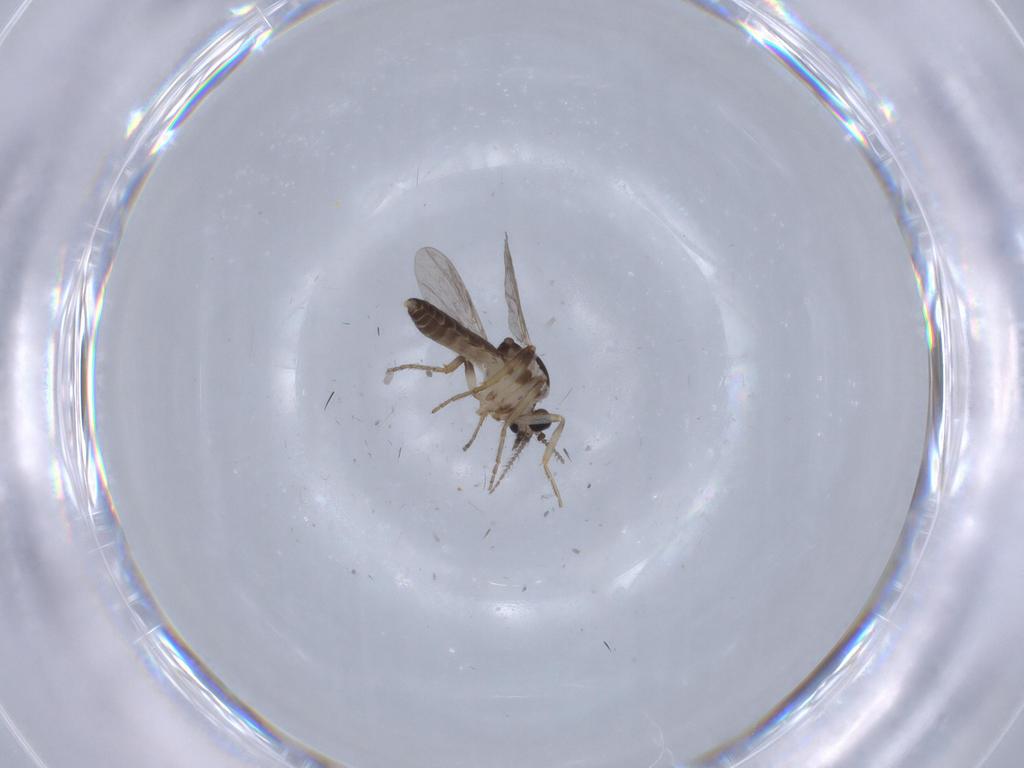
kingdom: Animalia
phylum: Arthropoda
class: Insecta
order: Diptera
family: Ceratopogonidae
